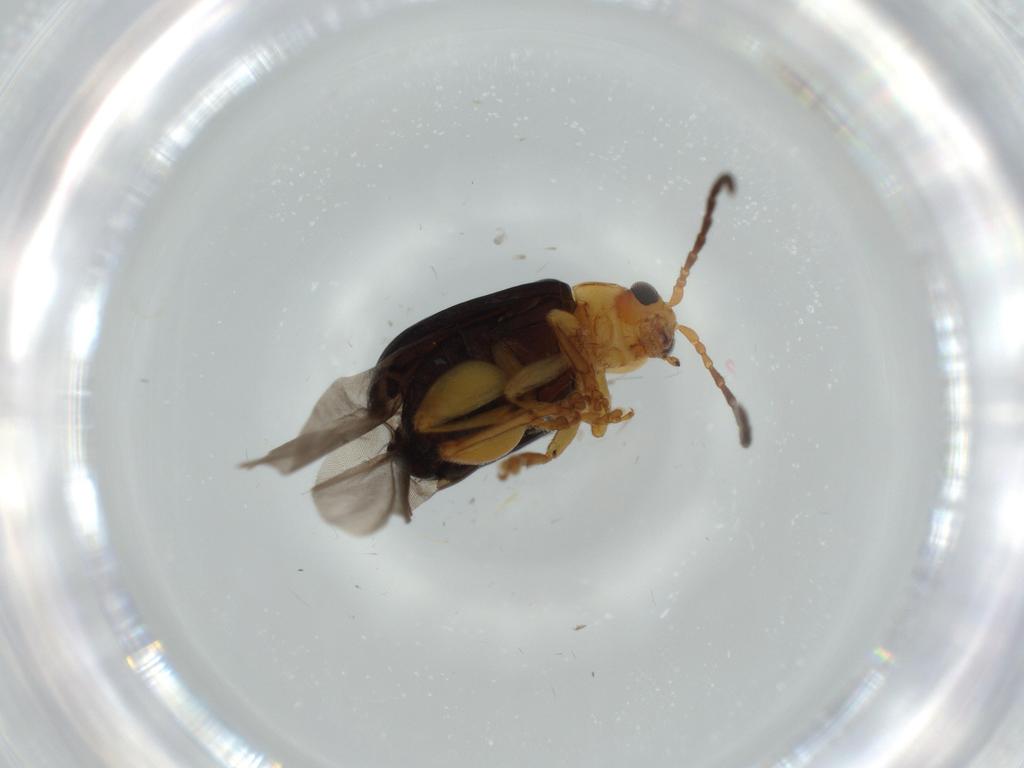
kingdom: Animalia
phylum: Arthropoda
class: Insecta
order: Coleoptera
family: Chrysomelidae
